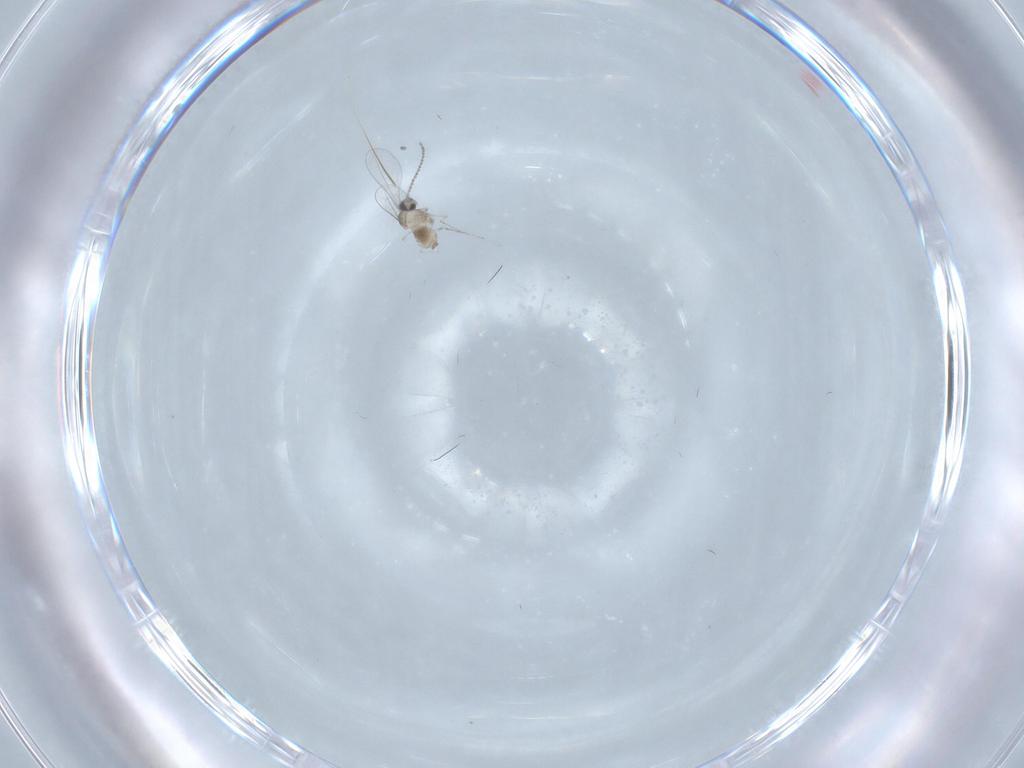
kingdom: Animalia
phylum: Arthropoda
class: Insecta
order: Diptera
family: Cecidomyiidae
